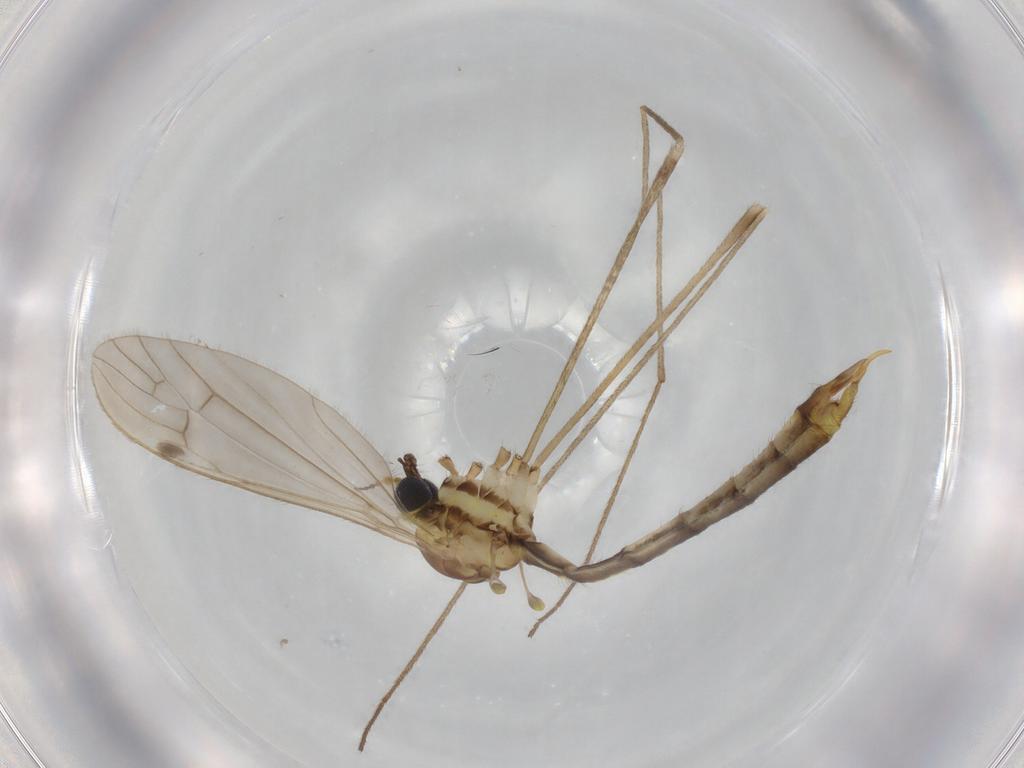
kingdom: Animalia
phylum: Arthropoda
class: Insecta
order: Diptera
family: Limoniidae
